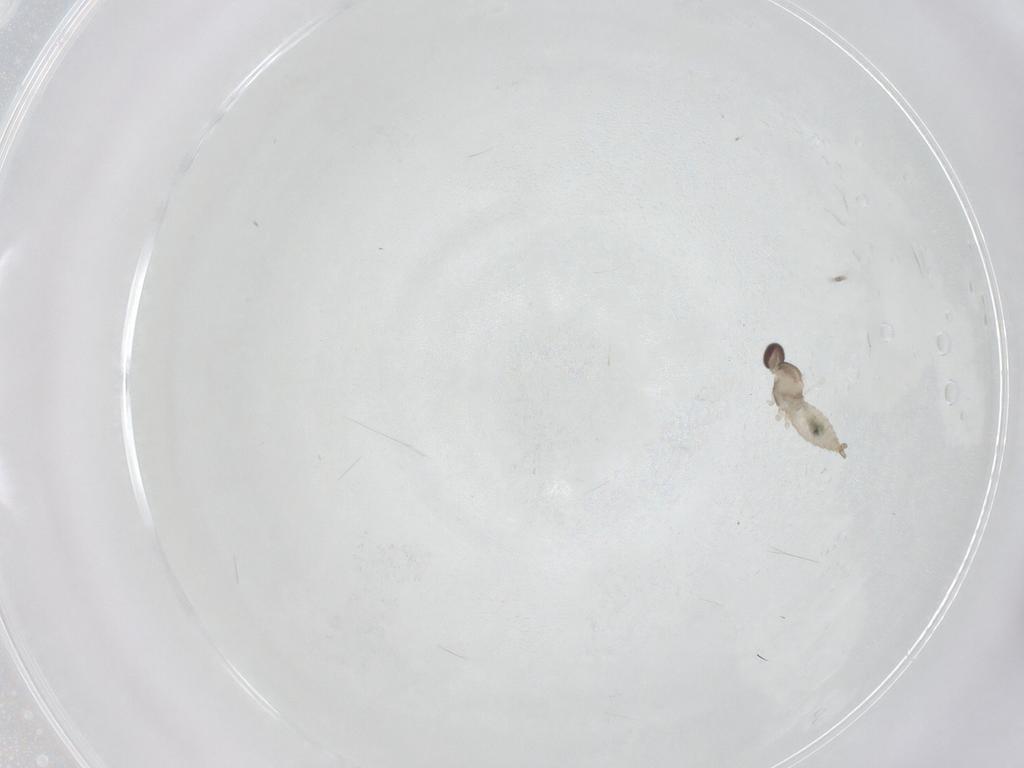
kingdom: Animalia
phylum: Arthropoda
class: Insecta
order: Diptera
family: Cecidomyiidae
